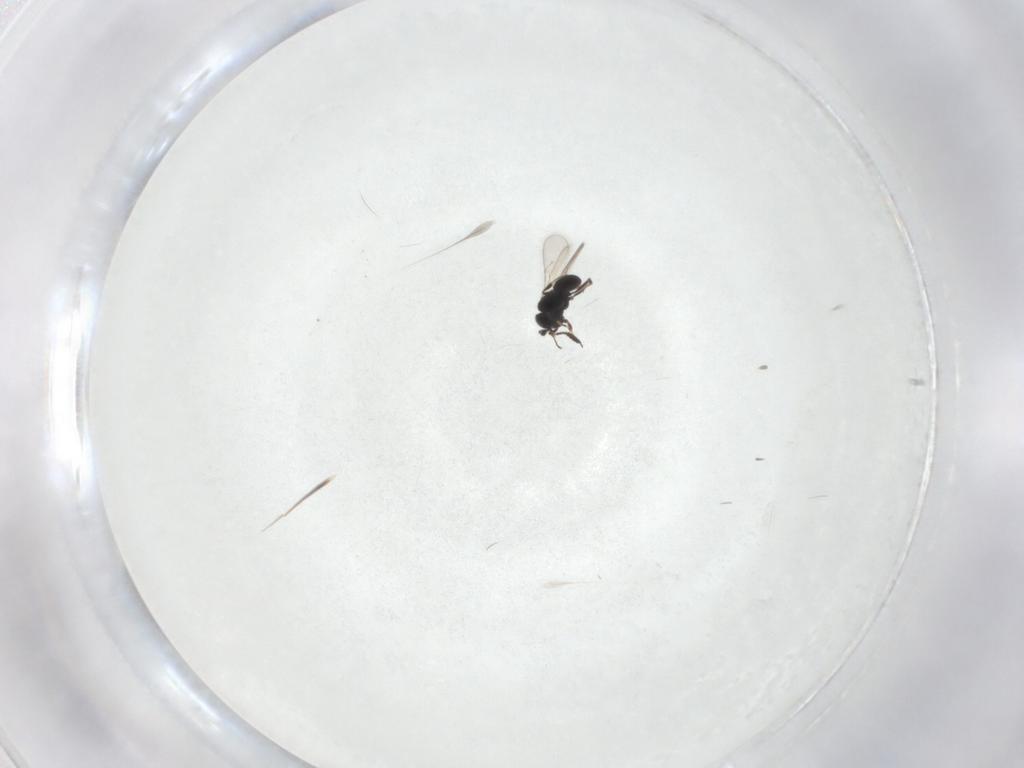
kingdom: Animalia
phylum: Arthropoda
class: Insecta
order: Hymenoptera
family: Scelionidae
